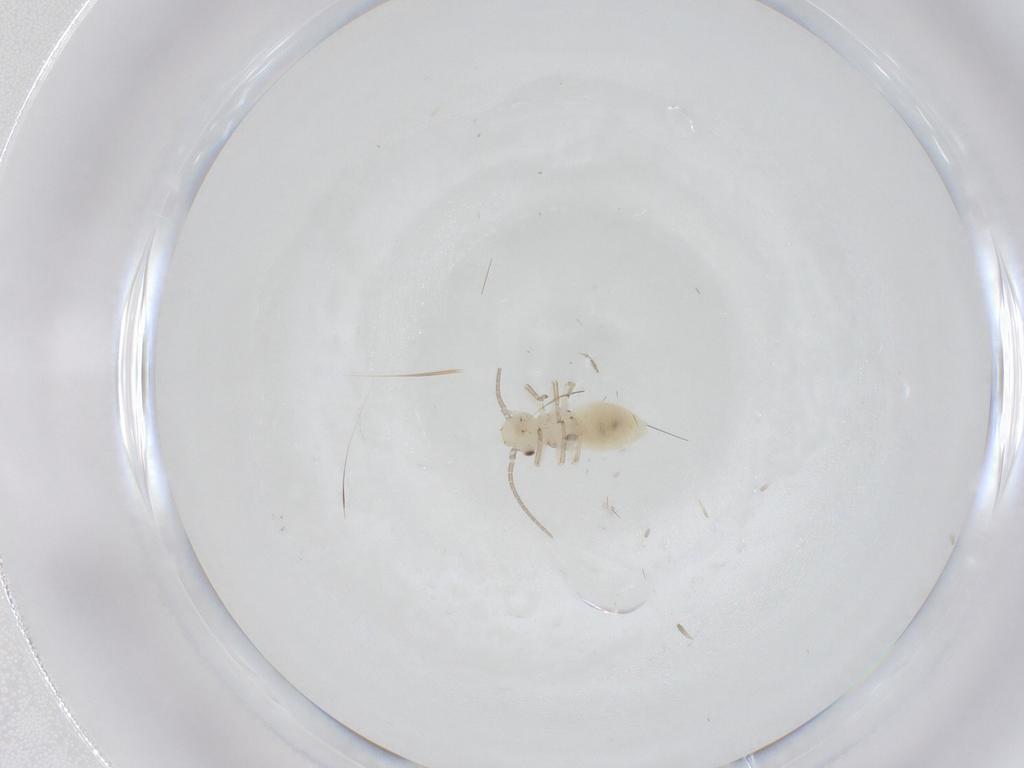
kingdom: Animalia
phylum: Arthropoda
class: Insecta
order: Psocodea
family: Caeciliusidae
